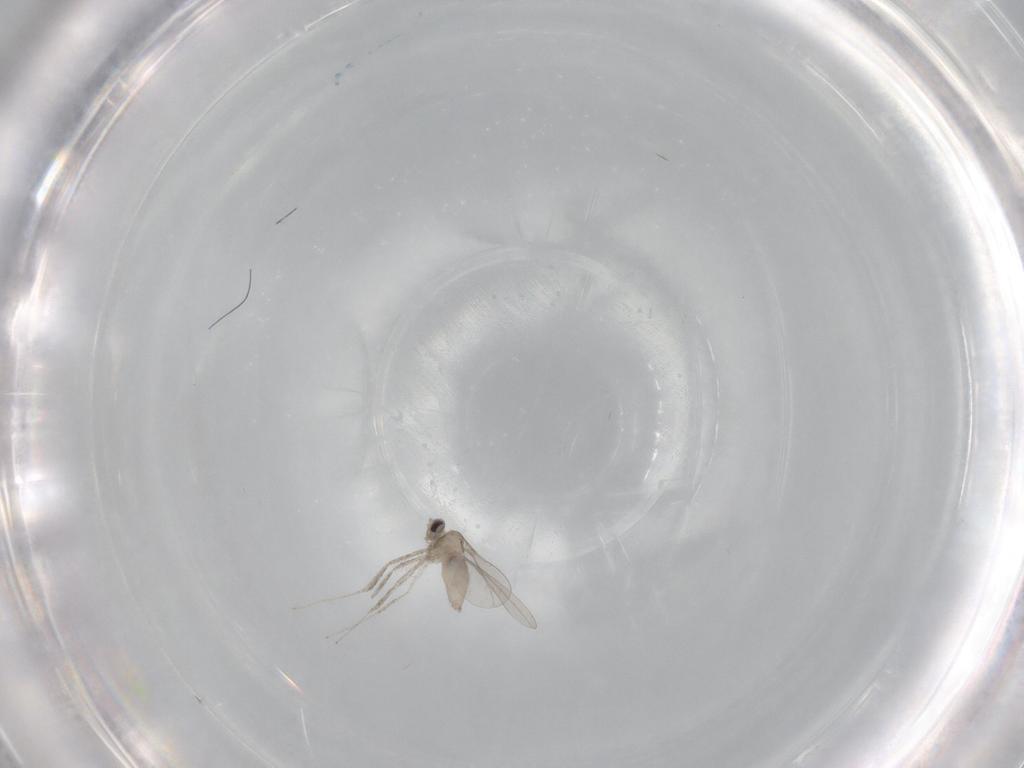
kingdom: Animalia
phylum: Arthropoda
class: Insecta
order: Diptera
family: Cecidomyiidae
